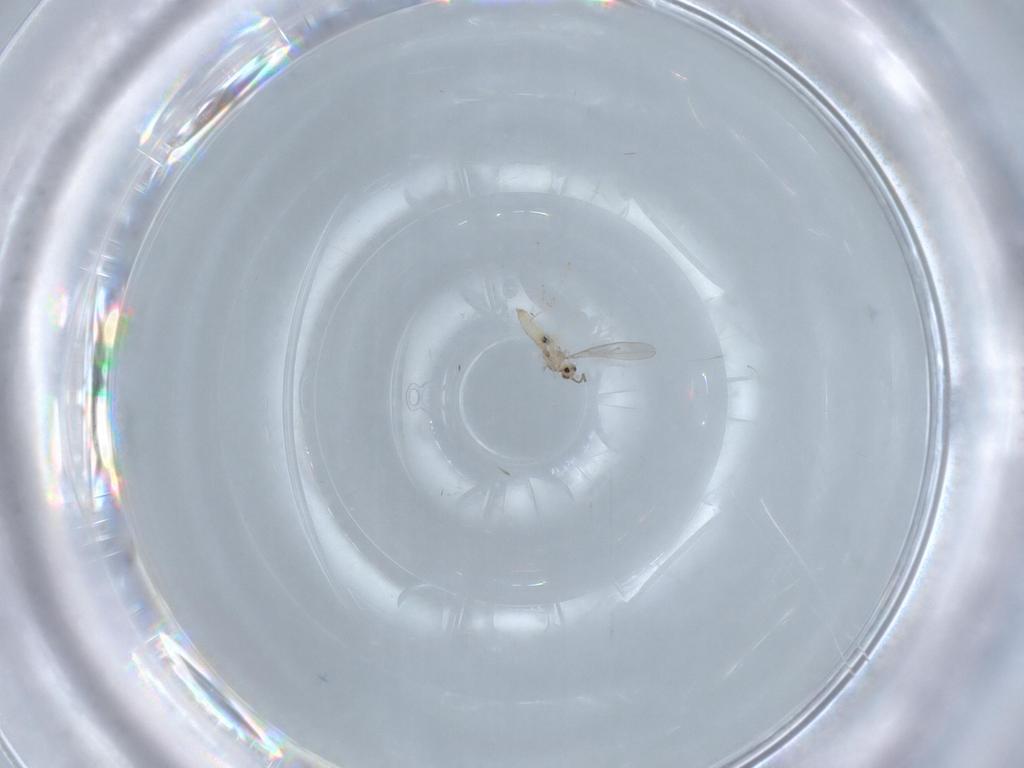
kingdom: Animalia
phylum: Arthropoda
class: Insecta
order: Diptera
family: Cecidomyiidae
